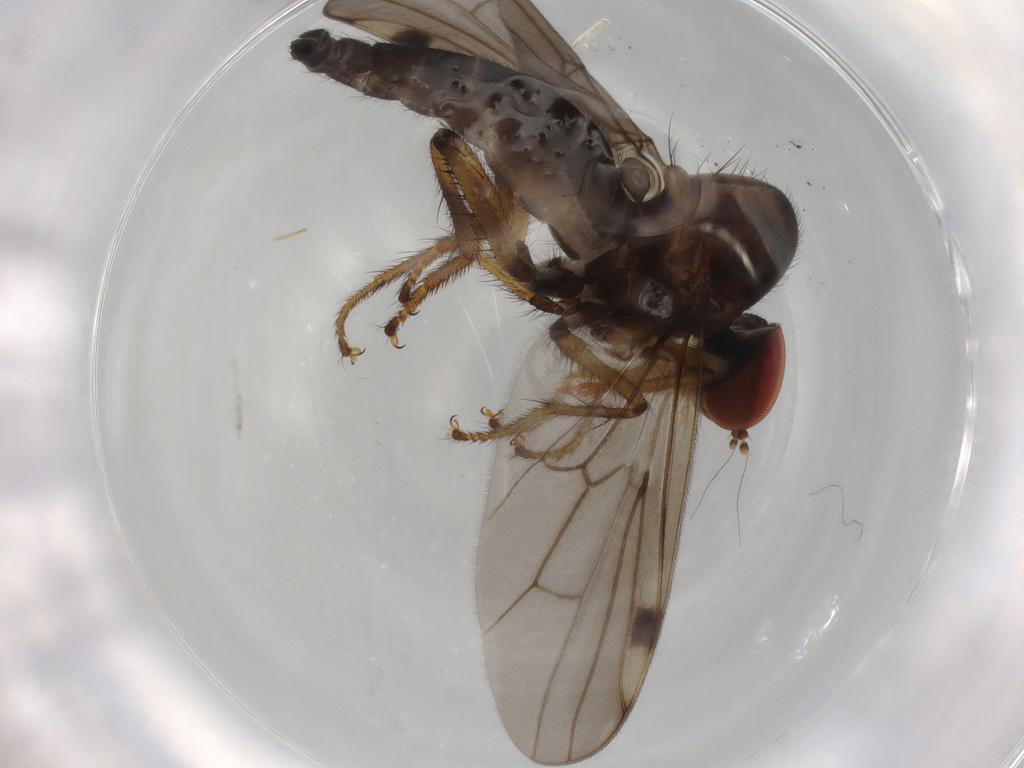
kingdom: Animalia
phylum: Arthropoda
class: Insecta
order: Diptera
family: Hybotidae
